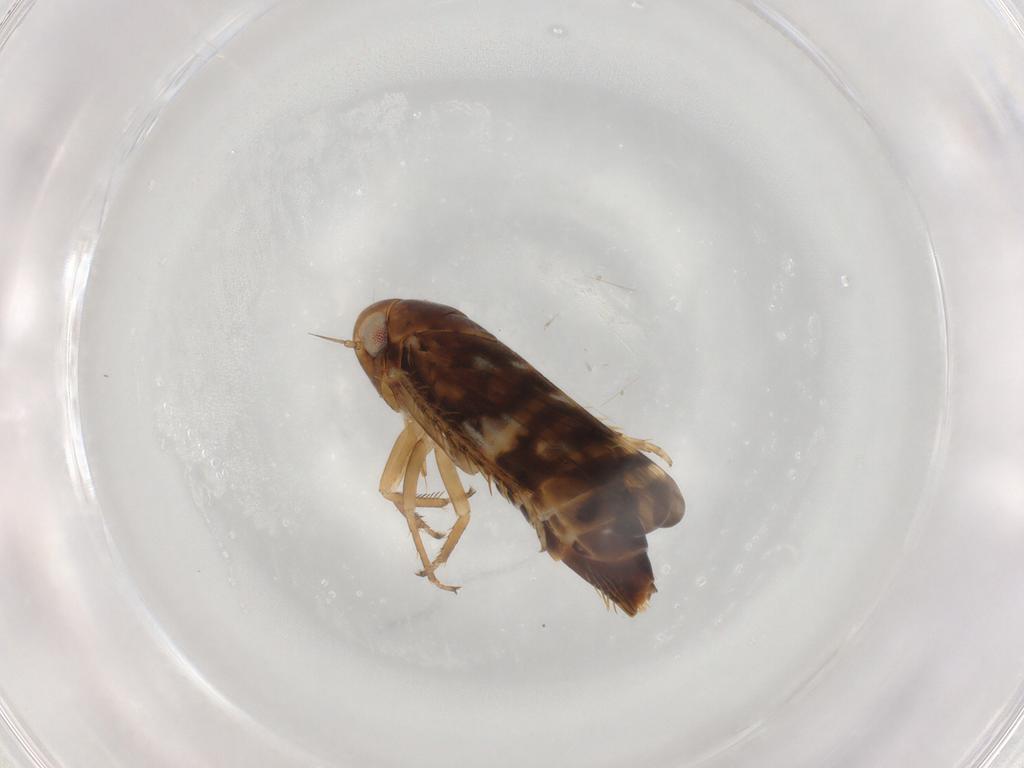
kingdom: Animalia
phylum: Arthropoda
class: Insecta
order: Hemiptera
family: Cicadellidae
